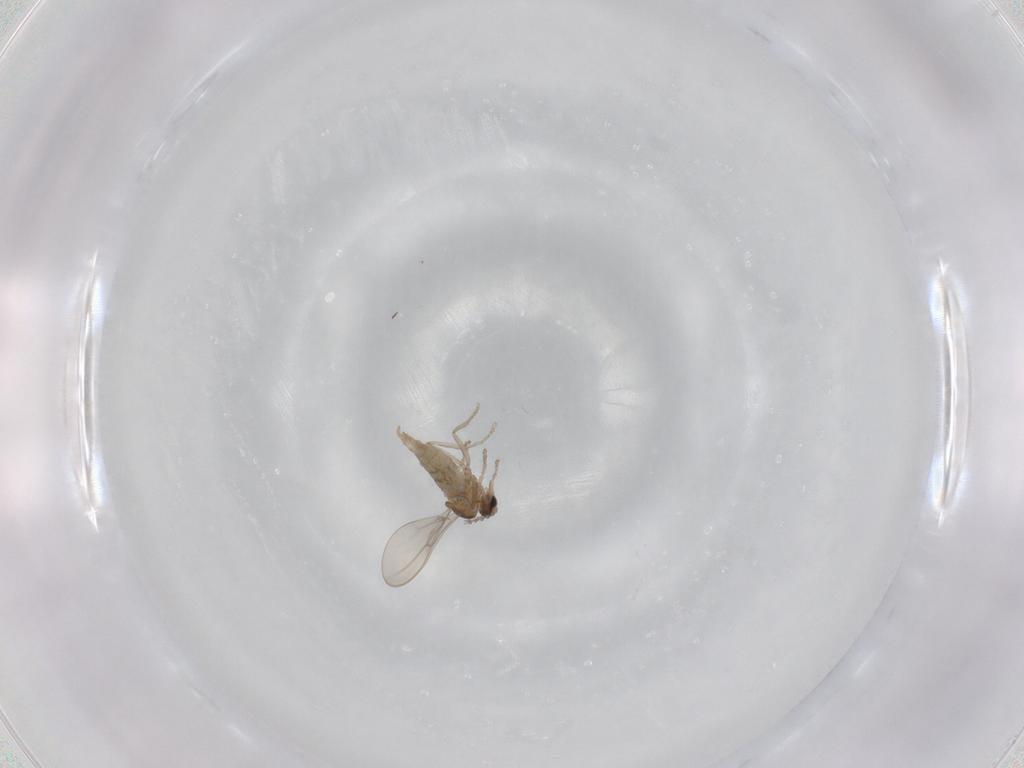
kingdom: Animalia
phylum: Arthropoda
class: Insecta
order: Diptera
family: Cecidomyiidae
